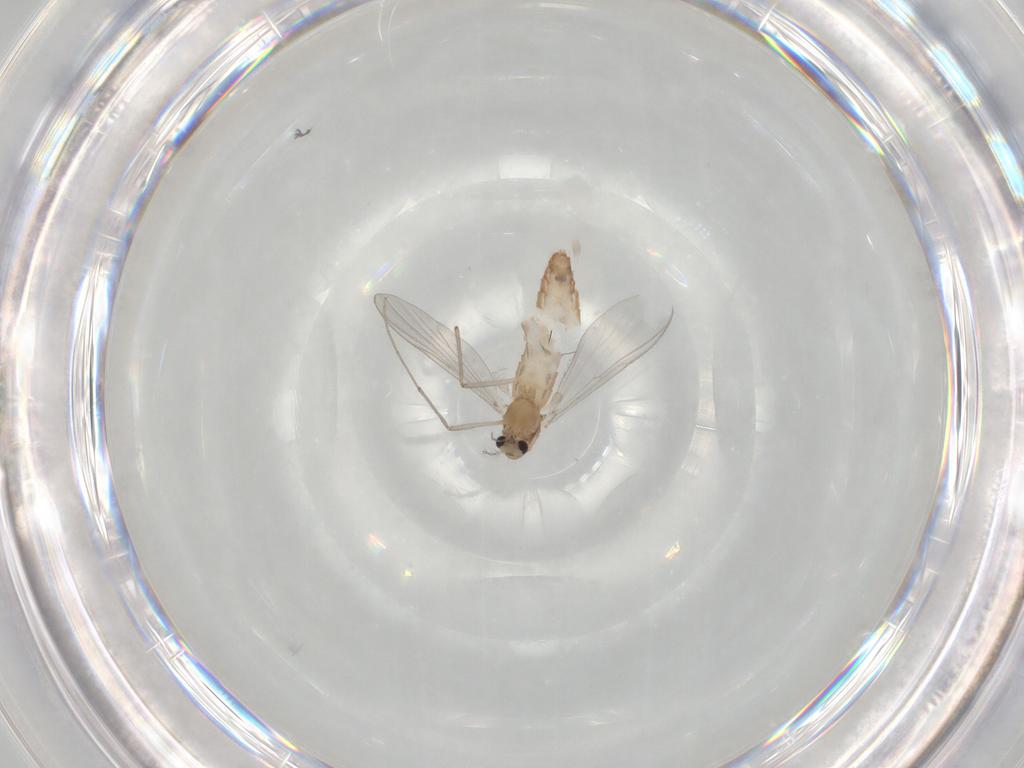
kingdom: Animalia
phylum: Arthropoda
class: Insecta
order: Diptera
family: Chironomidae
